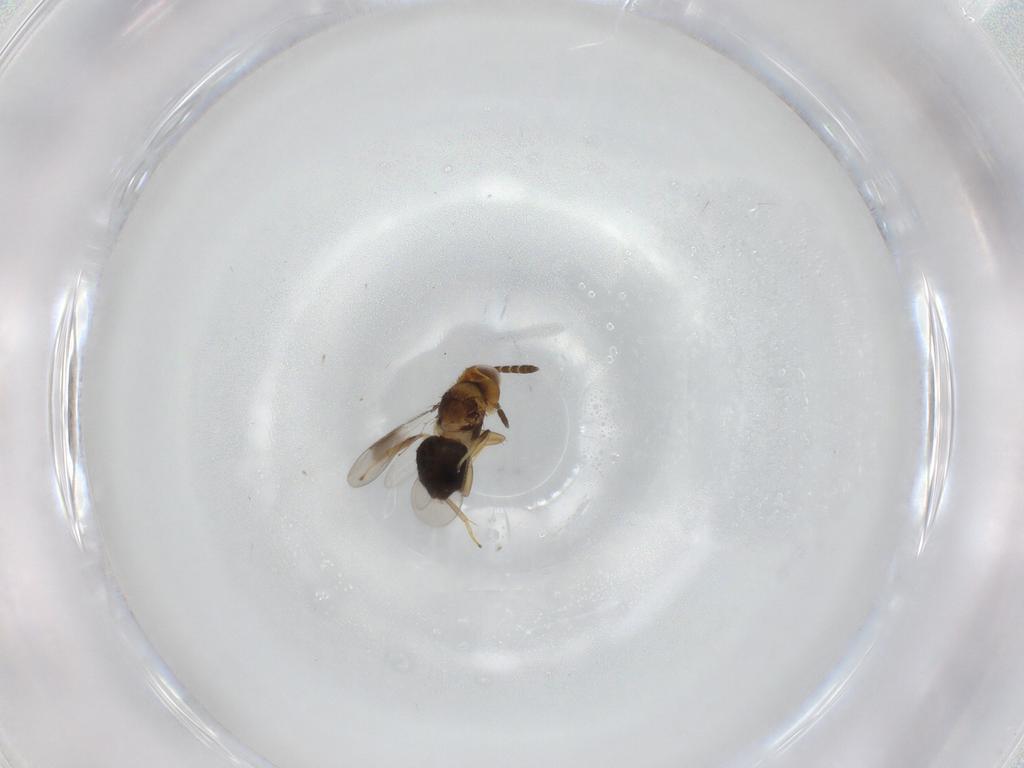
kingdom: Animalia
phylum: Arthropoda
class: Insecta
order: Hymenoptera
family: Aphelinidae
